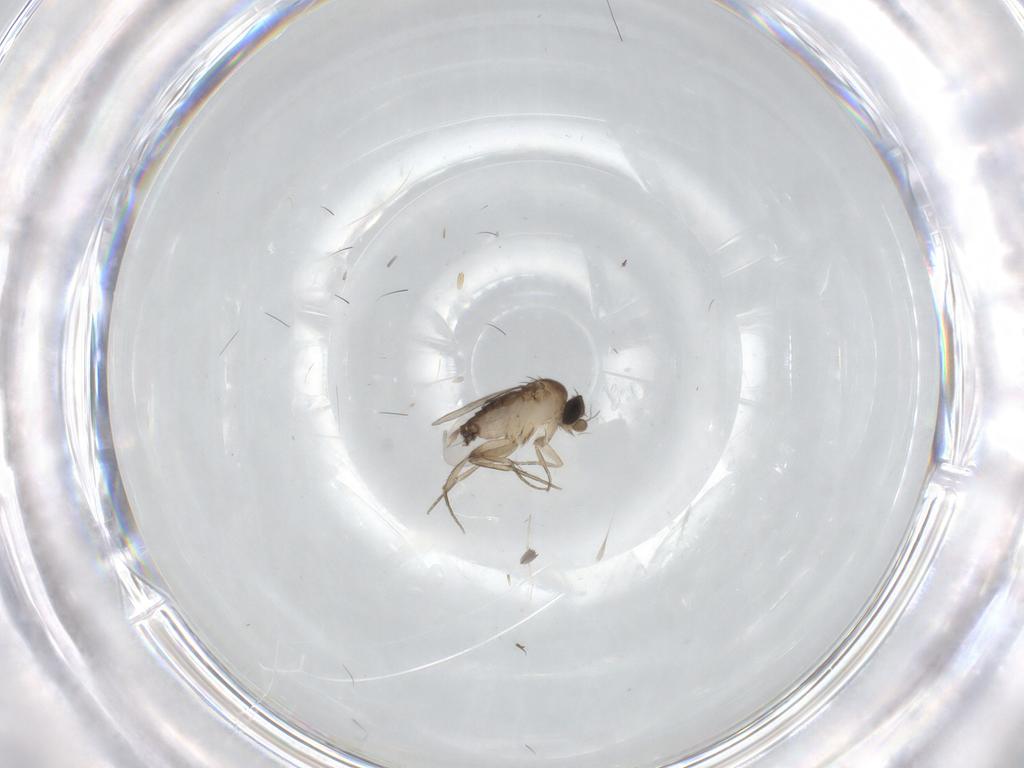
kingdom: Animalia
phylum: Arthropoda
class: Insecta
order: Diptera
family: Phoridae
